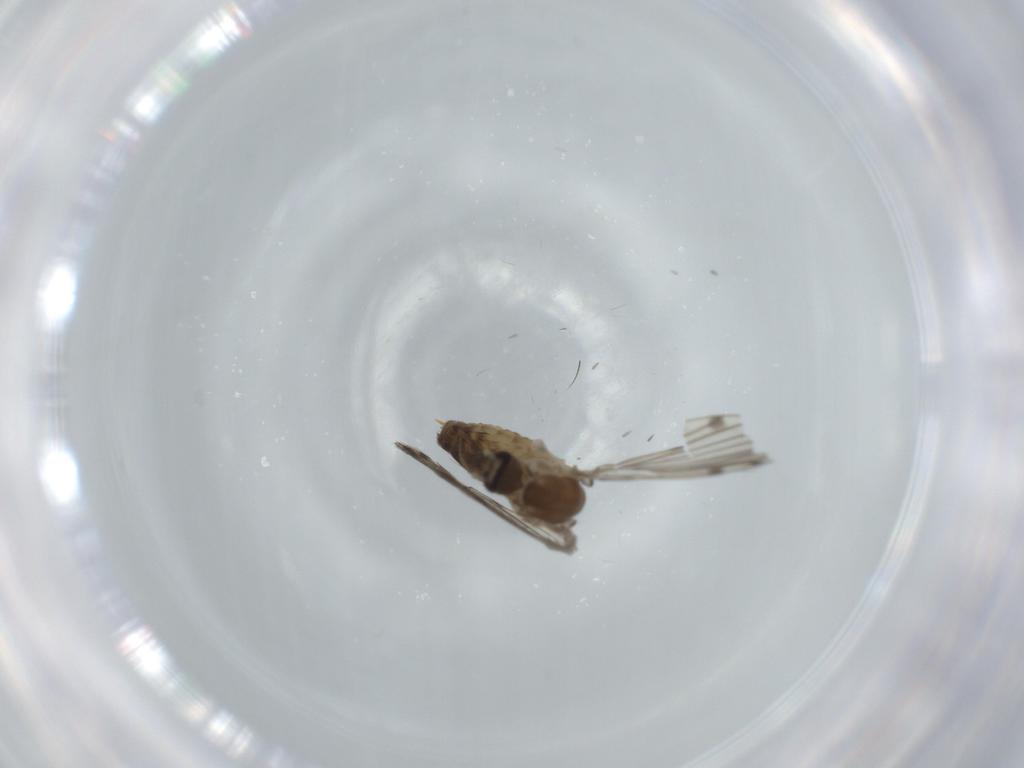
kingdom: Animalia
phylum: Arthropoda
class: Insecta
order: Diptera
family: Psychodidae
